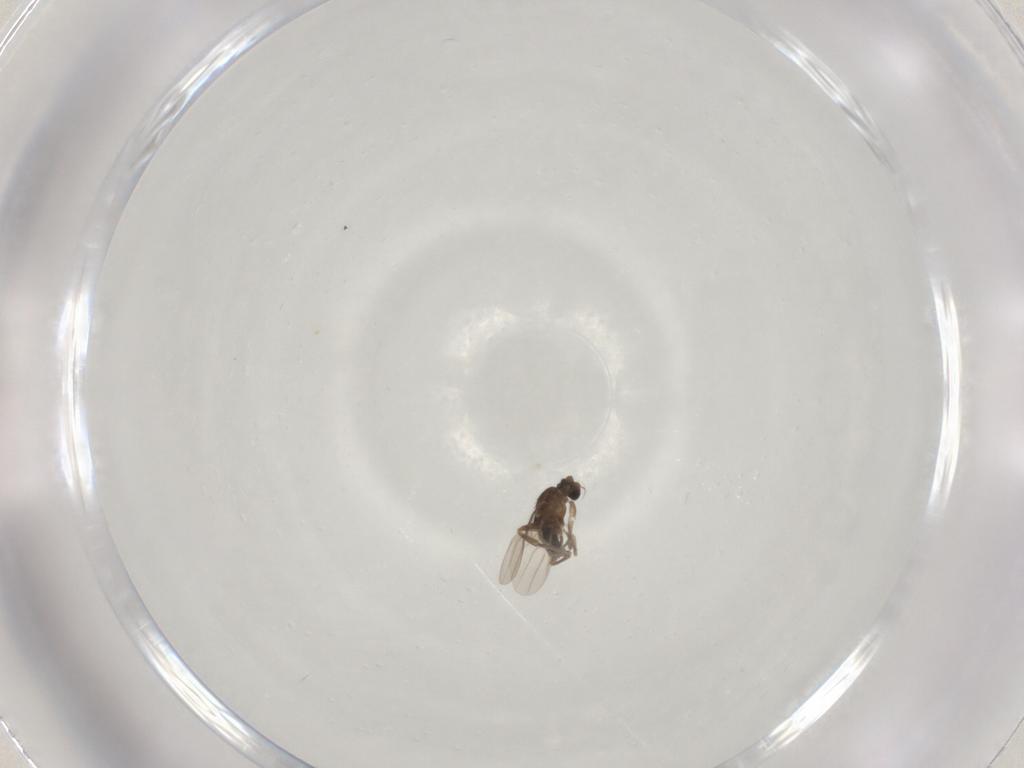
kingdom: Animalia
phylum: Arthropoda
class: Insecta
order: Diptera
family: Phoridae
